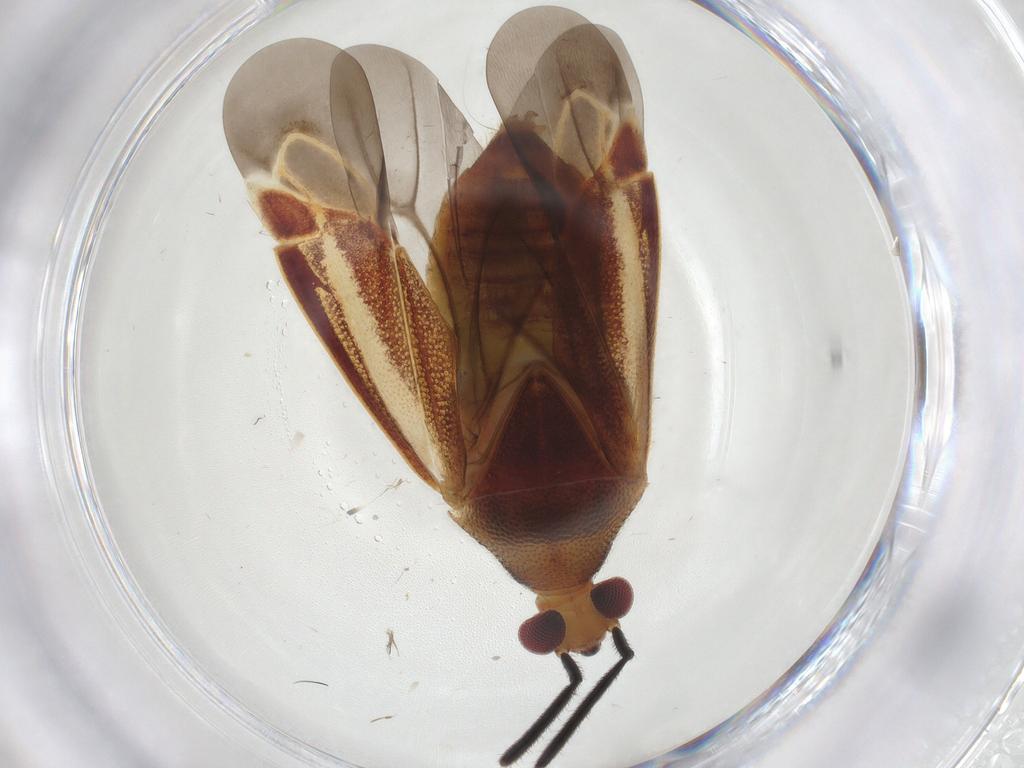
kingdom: Animalia
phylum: Arthropoda
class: Insecta
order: Hemiptera
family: Miridae
